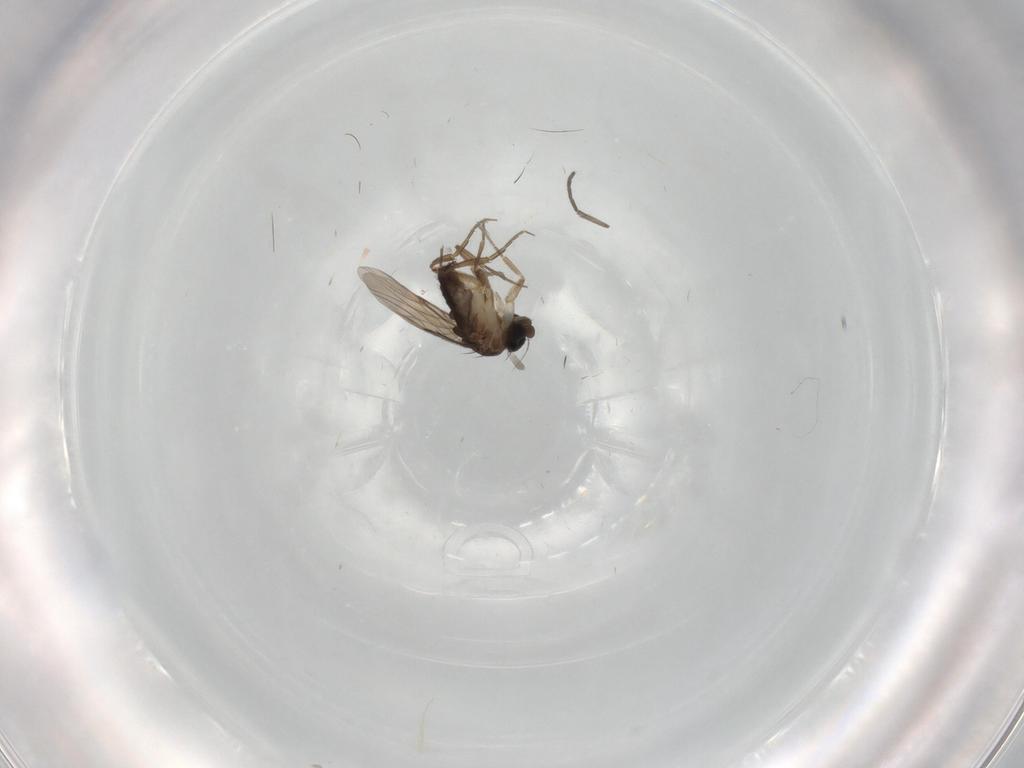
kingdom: Animalia
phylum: Arthropoda
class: Insecta
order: Diptera
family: Phoridae
